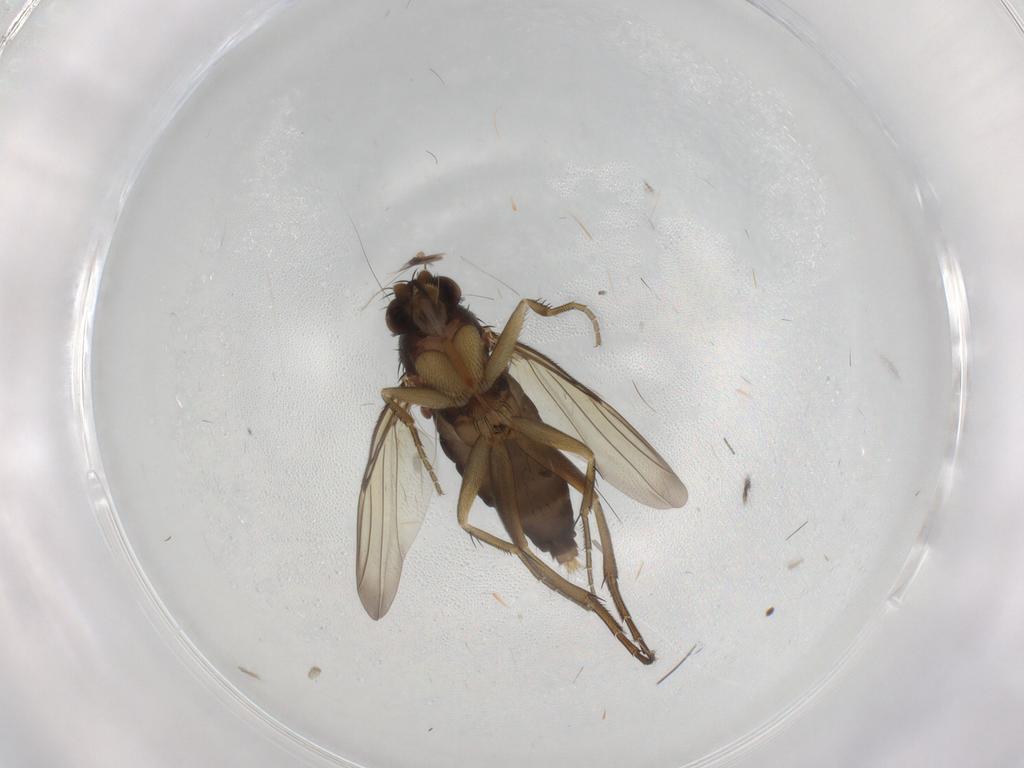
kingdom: Animalia
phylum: Arthropoda
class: Insecta
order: Diptera
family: Phoridae
